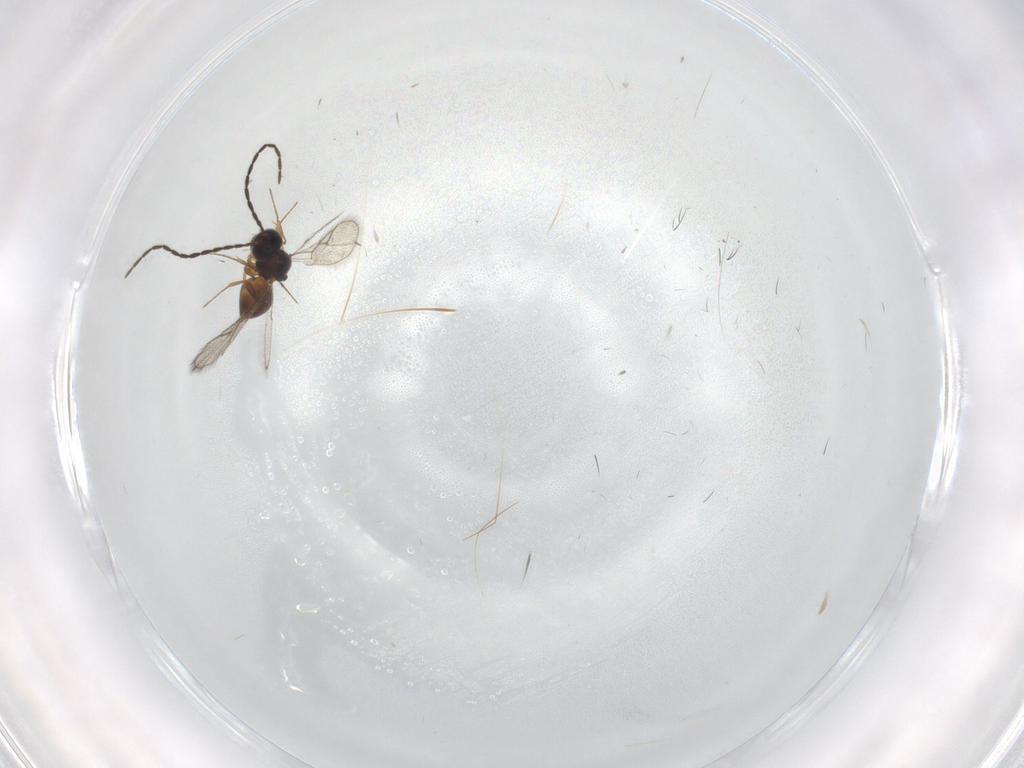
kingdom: Animalia
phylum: Arthropoda
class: Insecta
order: Hymenoptera
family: Figitidae
